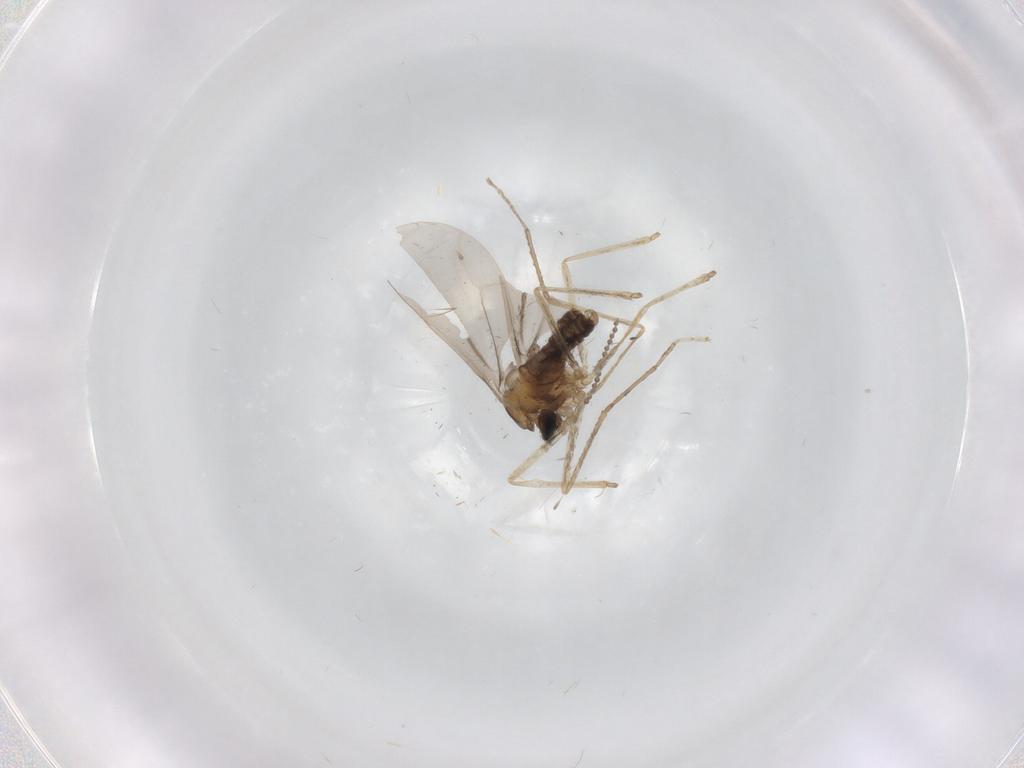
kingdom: Animalia
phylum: Arthropoda
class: Insecta
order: Diptera
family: Cecidomyiidae
